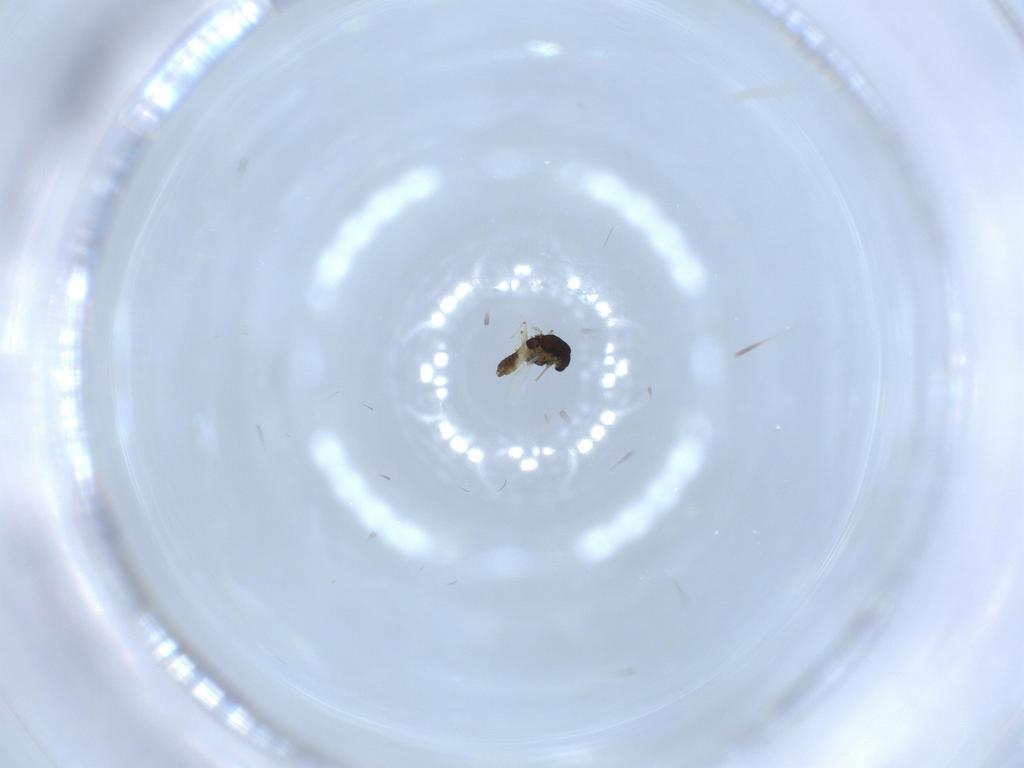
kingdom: Animalia
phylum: Arthropoda
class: Insecta
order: Diptera
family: Chironomidae
